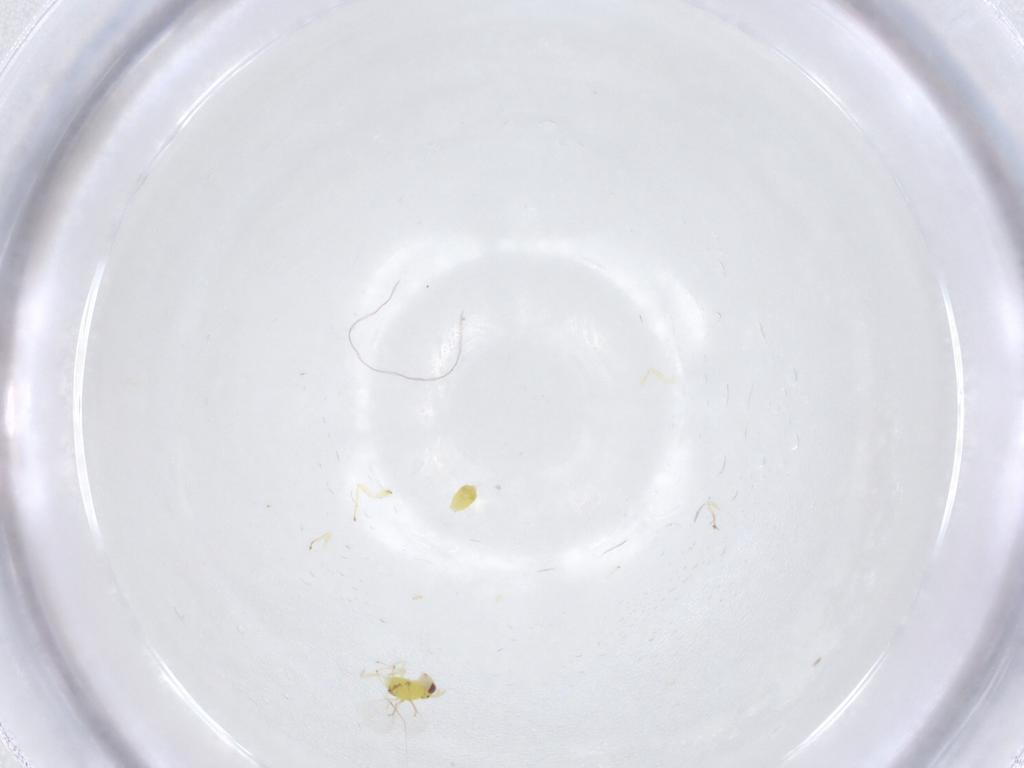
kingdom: Animalia
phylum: Arthropoda
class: Insecta
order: Hymenoptera
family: Eulophidae
